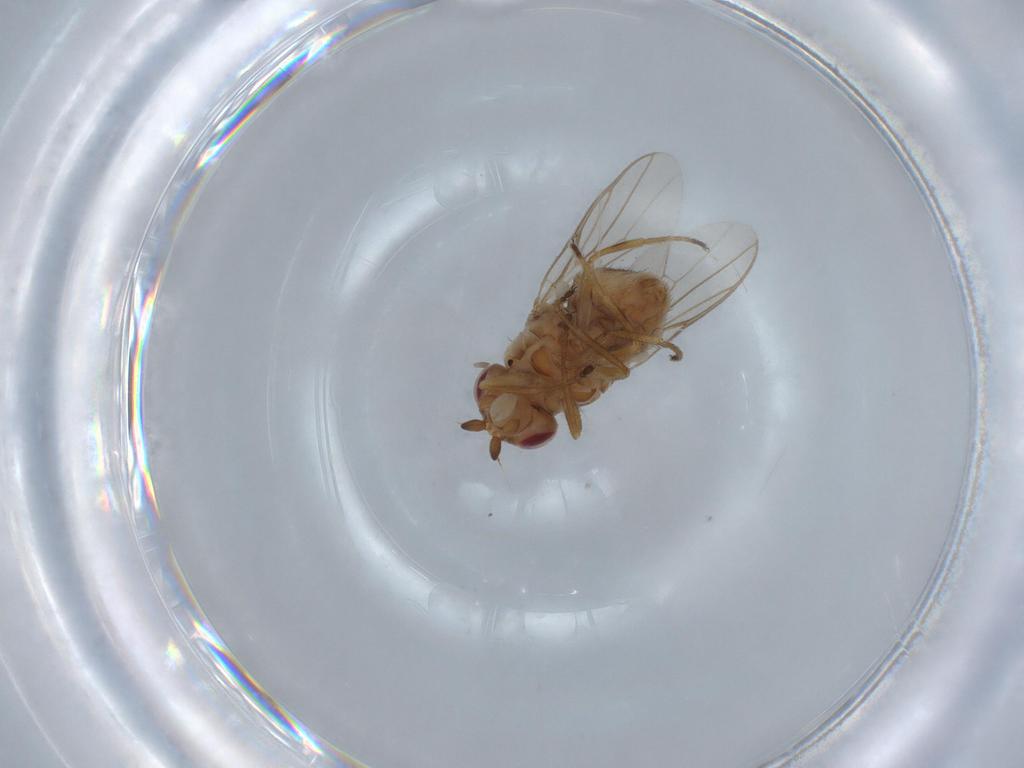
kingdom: Animalia
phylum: Arthropoda
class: Insecta
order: Diptera
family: Chloropidae
